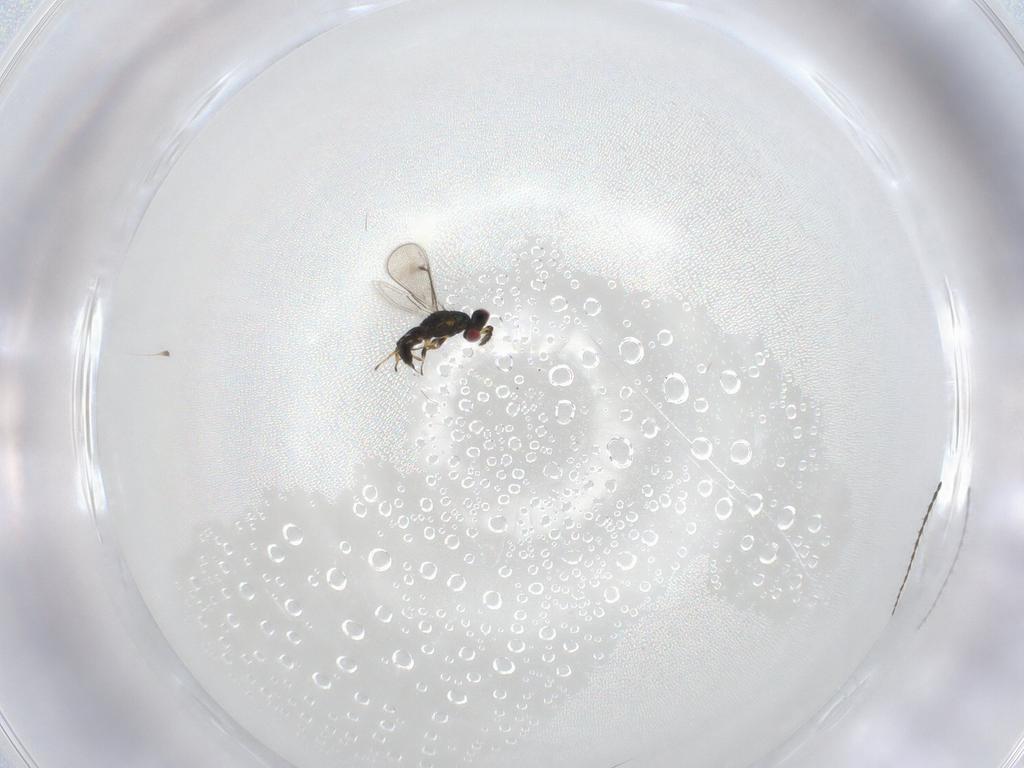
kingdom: Animalia
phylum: Arthropoda
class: Insecta
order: Hymenoptera
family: Eulophidae
